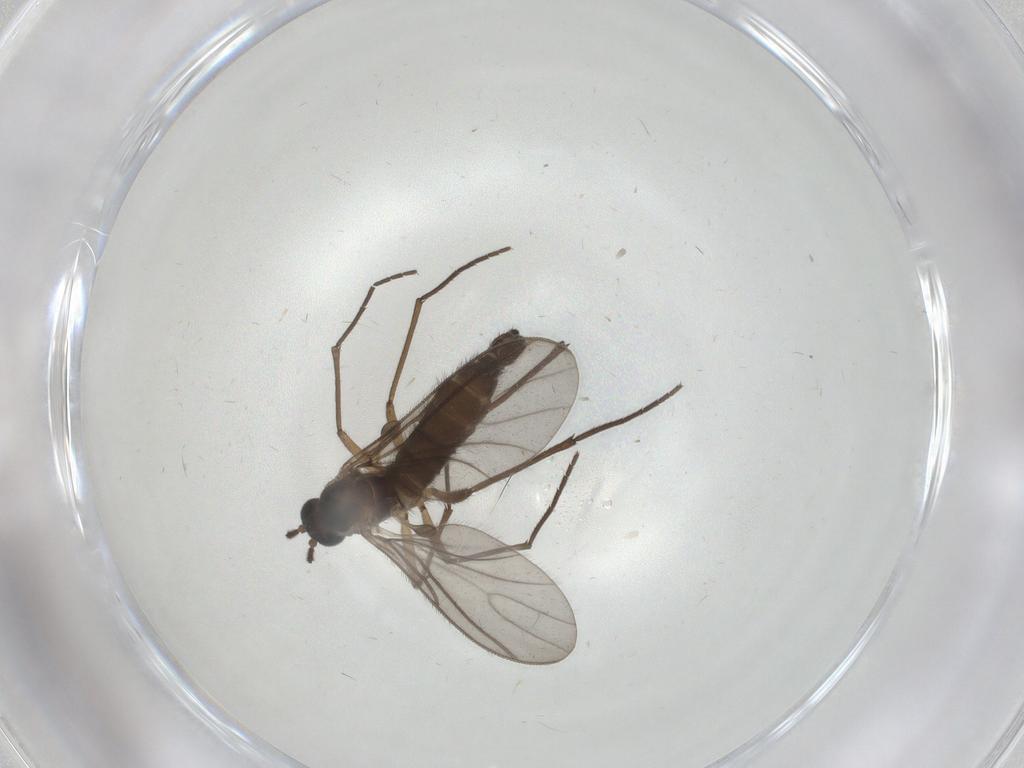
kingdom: Animalia
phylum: Arthropoda
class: Insecta
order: Diptera
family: Sciaridae
